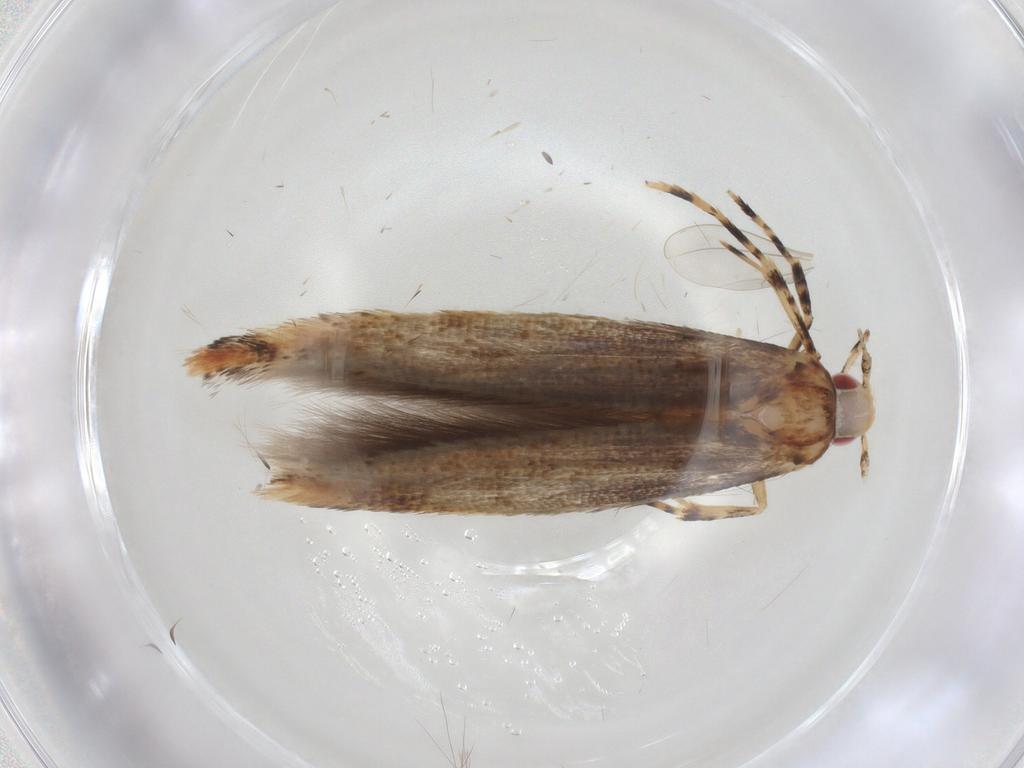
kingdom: Animalia
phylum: Arthropoda
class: Insecta
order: Lepidoptera
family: Cosmopterigidae
